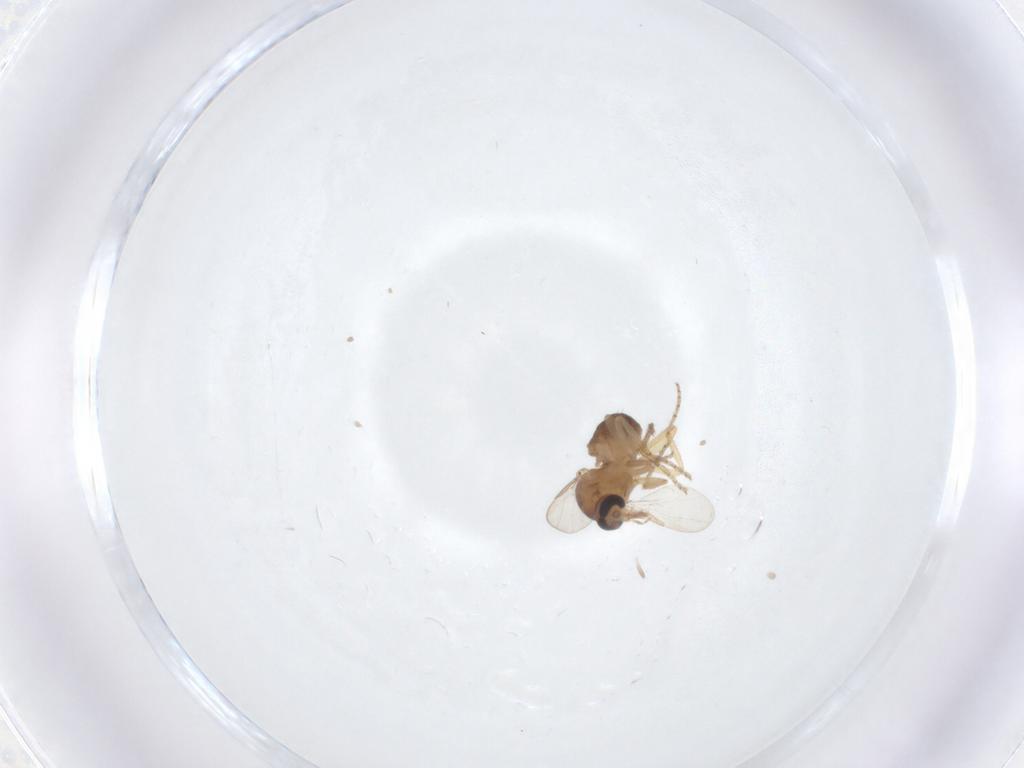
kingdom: Animalia
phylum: Arthropoda
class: Insecta
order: Diptera
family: Ceratopogonidae
